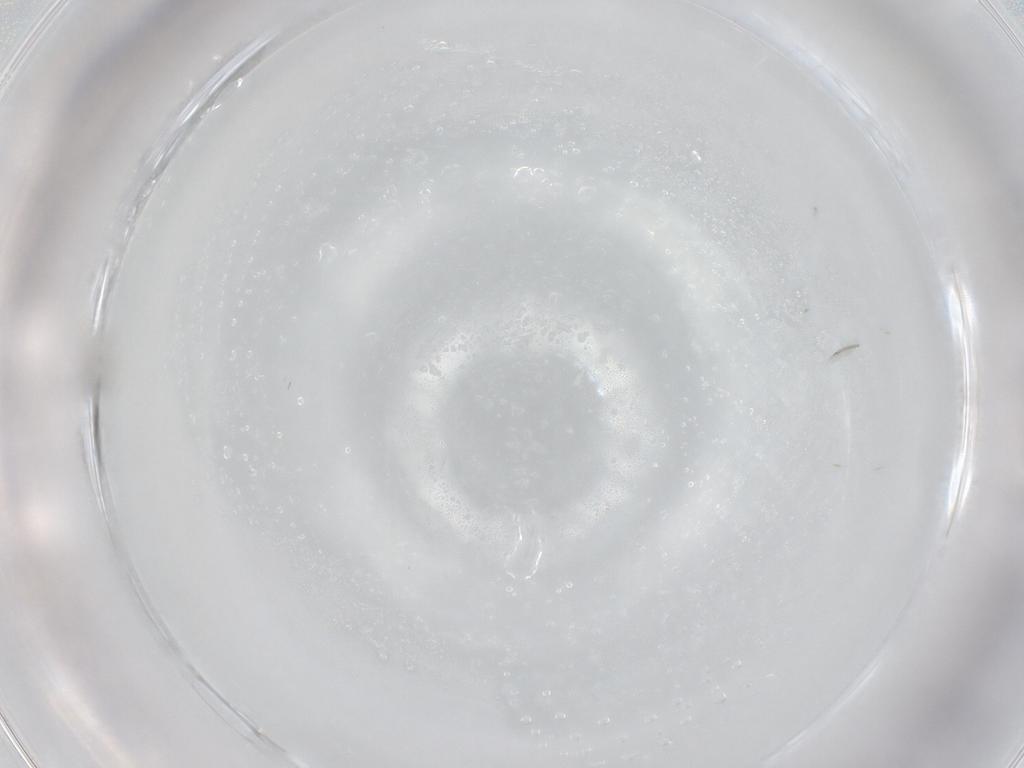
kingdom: Animalia
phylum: Arthropoda
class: Insecta
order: Hymenoptera
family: Mymaridae
